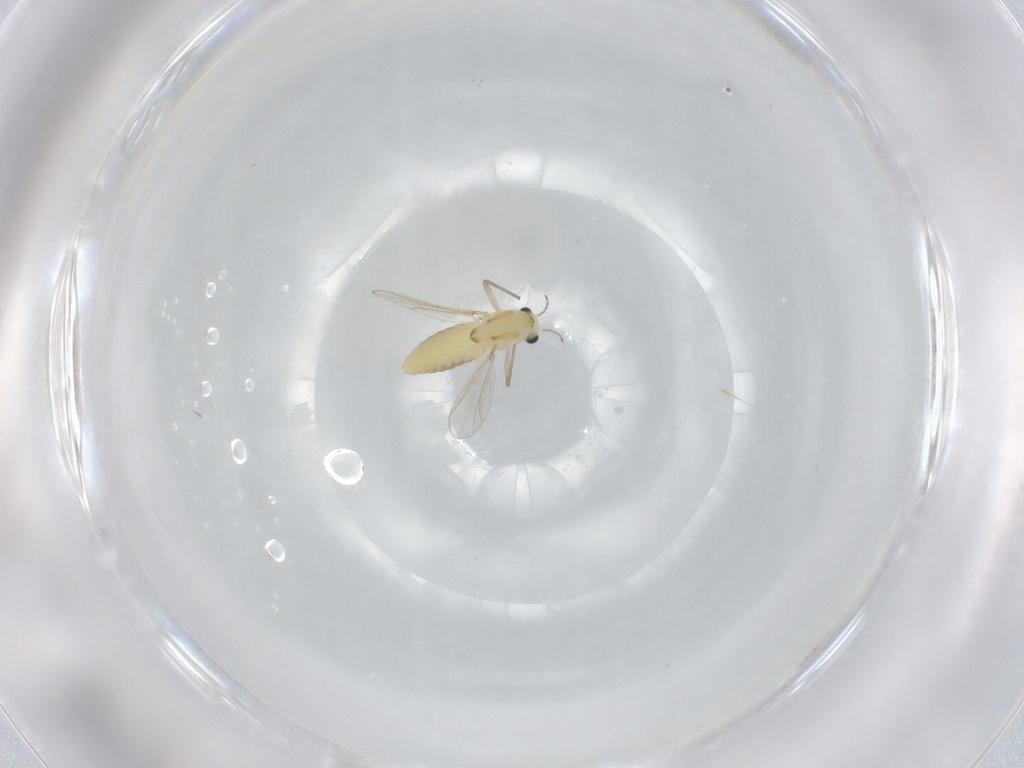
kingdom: Animalia
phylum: Arthropoda
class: Insecta
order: Diptera
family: Chironomidae
